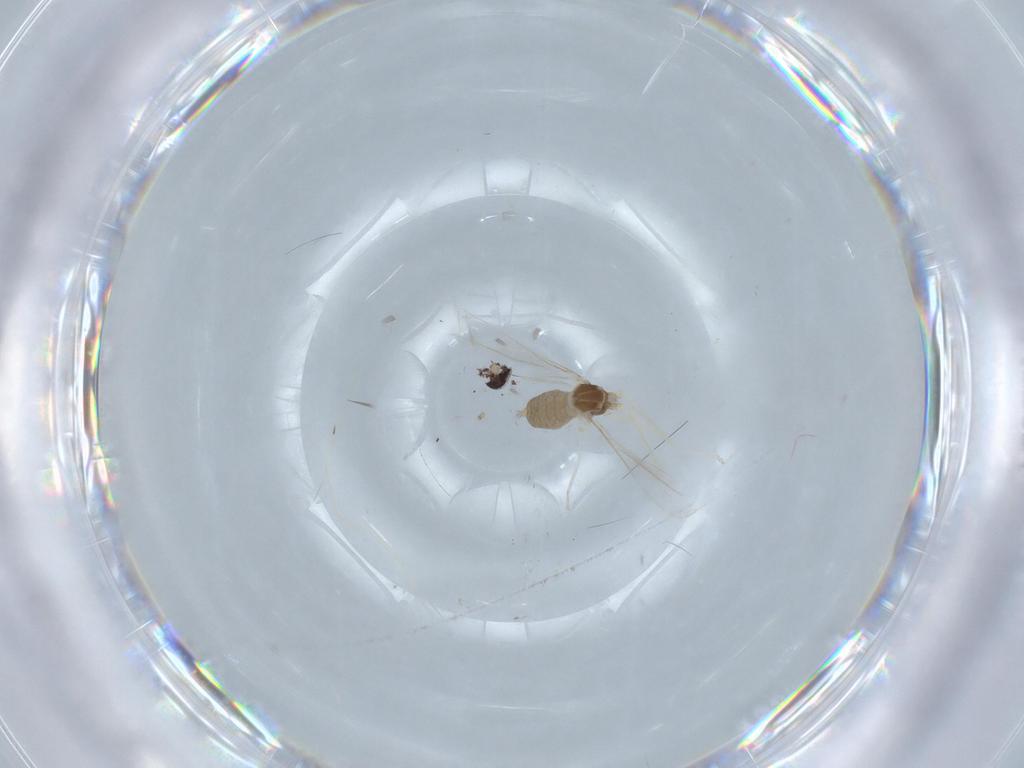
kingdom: Animalia
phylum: Arthropoda
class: Insecta
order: Diptera
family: Cecidomyiidae
